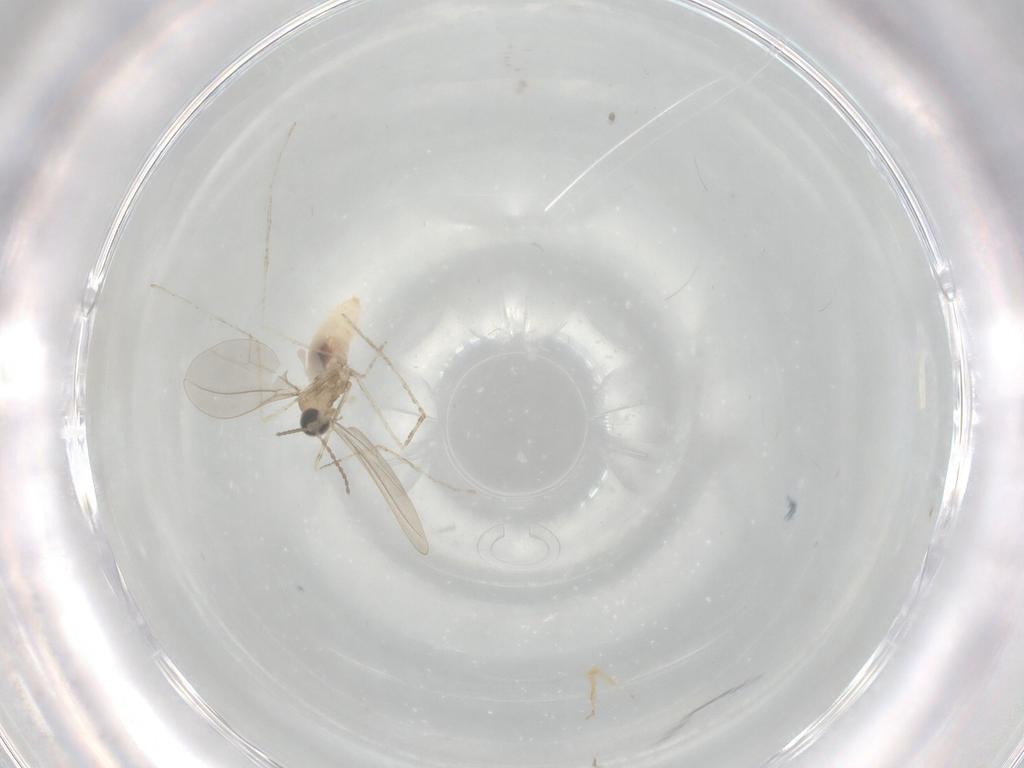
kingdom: Animalia
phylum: Arthropoda
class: Insecta
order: Diptera
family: Cecidomyiidae
